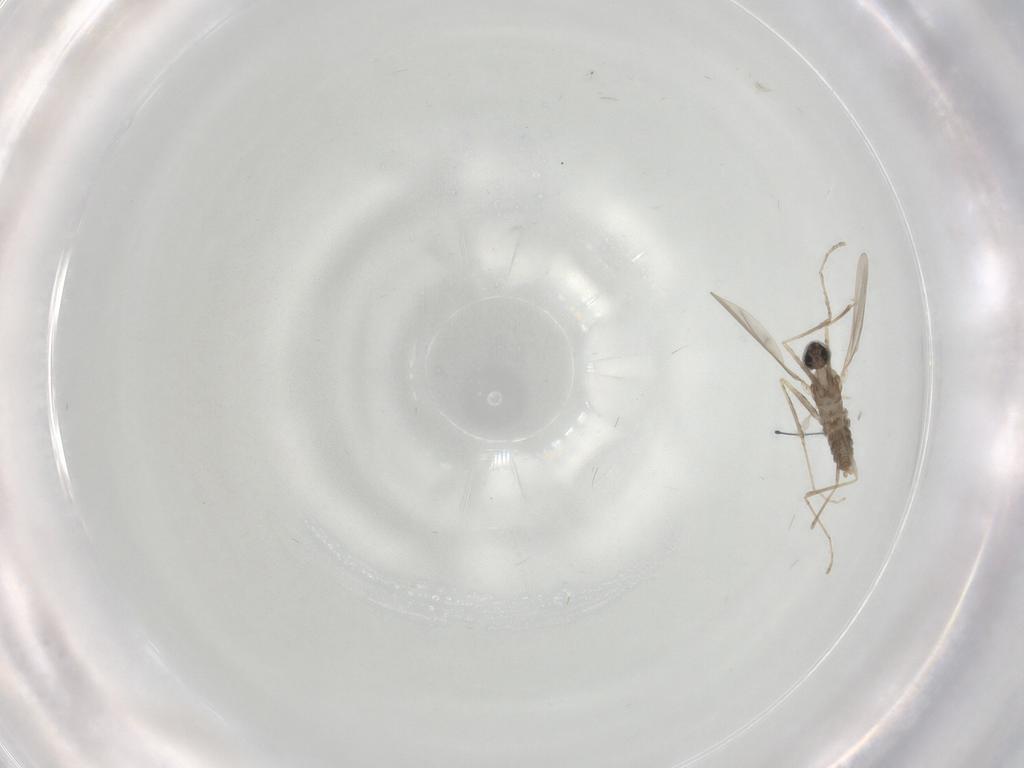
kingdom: Animalia
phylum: Arthropoda
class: Insecta
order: Diptera
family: Cecidomyiidae
